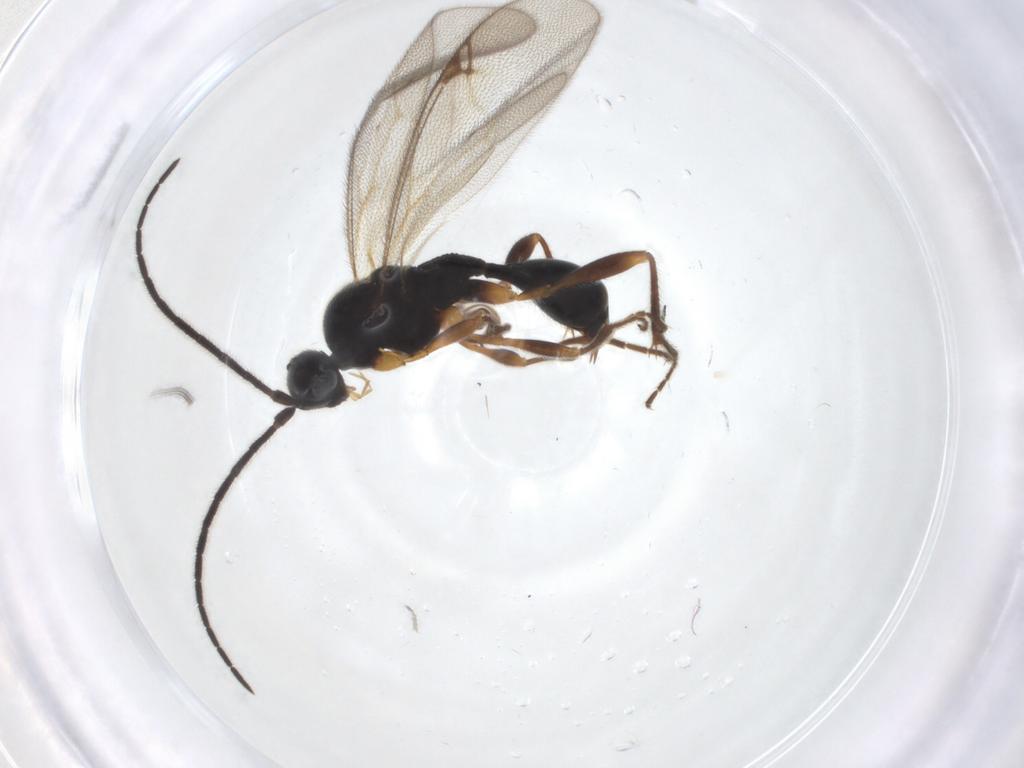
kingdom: Animalia
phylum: Arthropoda
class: Insecta
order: Hymenoptera
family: Proctotrupidae
